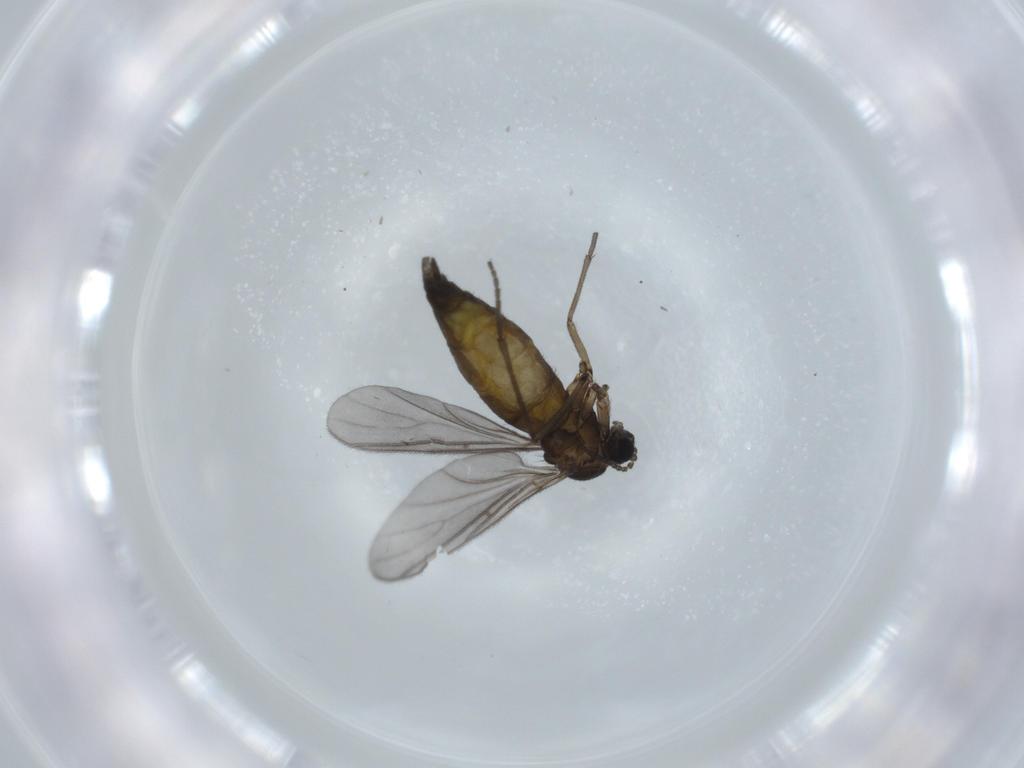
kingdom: Animalia
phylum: Arthropoda
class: Insecta
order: Diptera
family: Sciaridae
